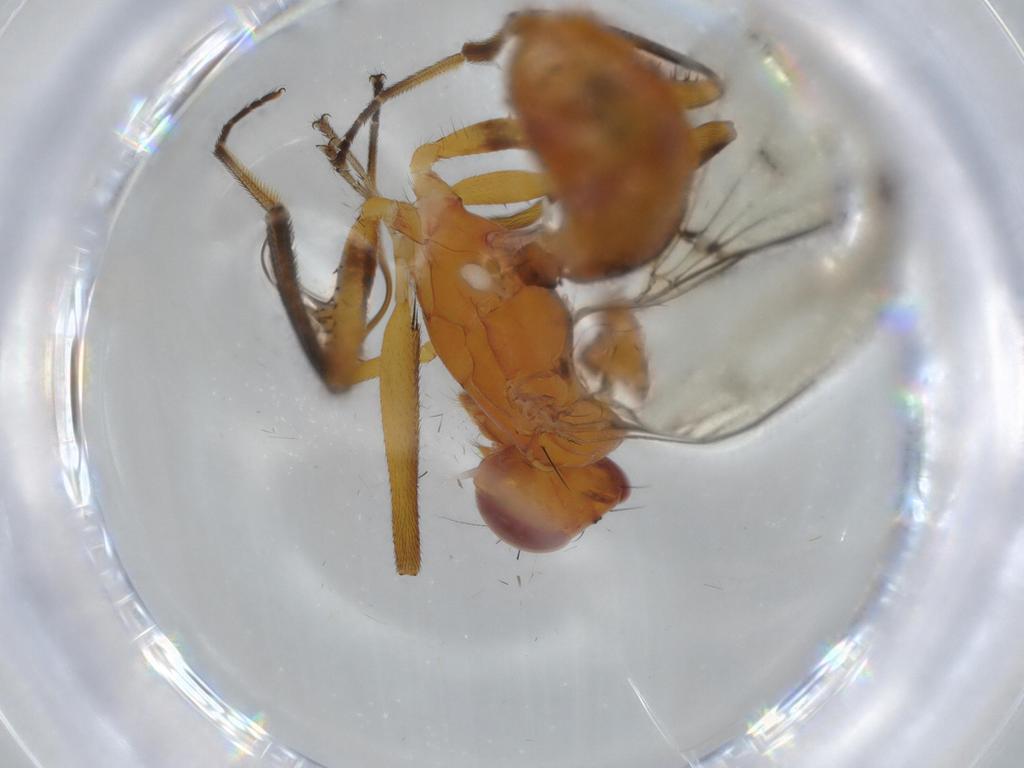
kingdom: Animalia
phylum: Arthropoda
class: Insecta
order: Diptera
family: Richardiidae
